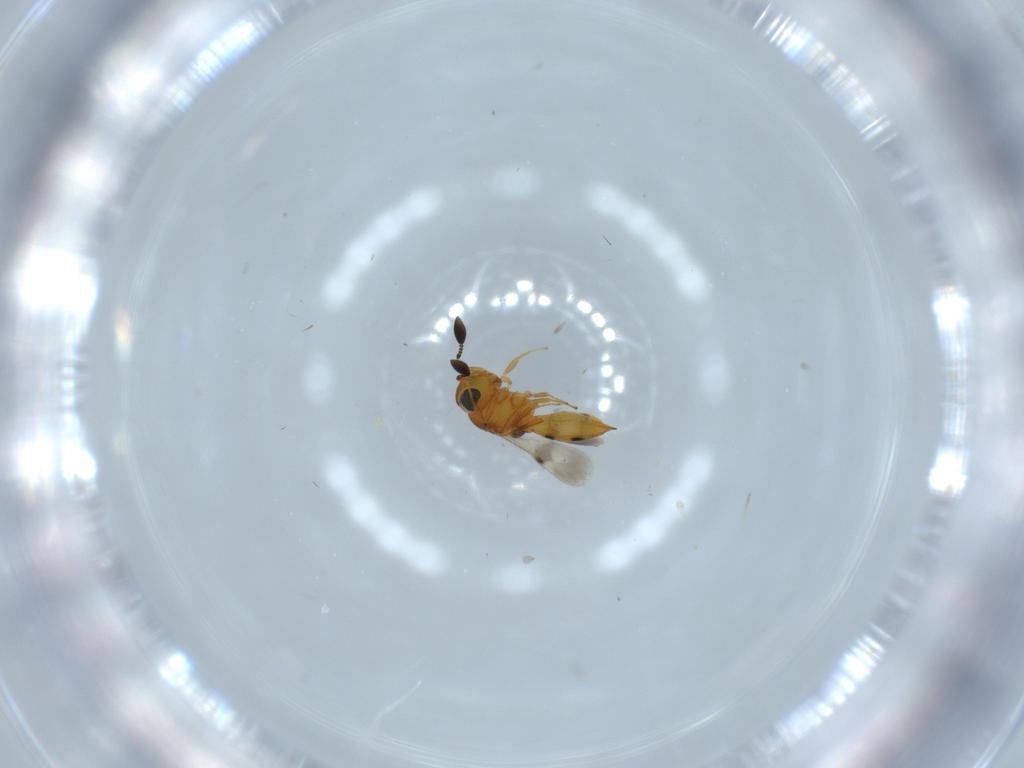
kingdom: Animalia
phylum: Arthropoda
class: Insecta
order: Hymenoptera
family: Scelionidae
